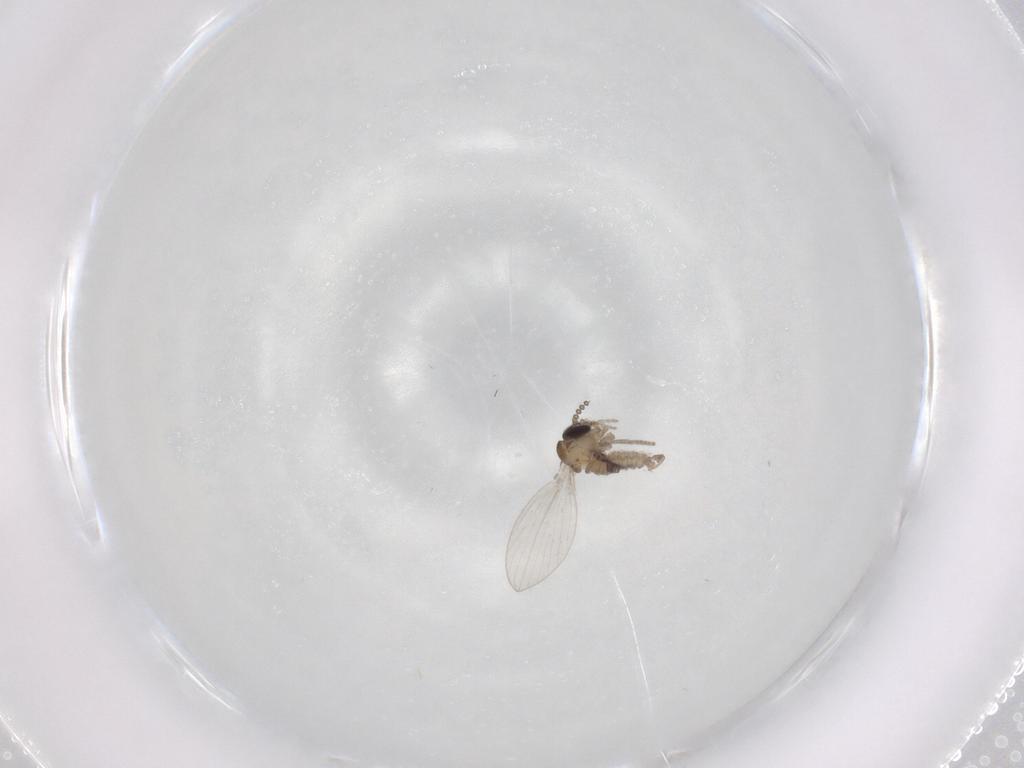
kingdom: Animalia
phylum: Arthropoda
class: Insecta
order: Diptera
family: Psychodidae
